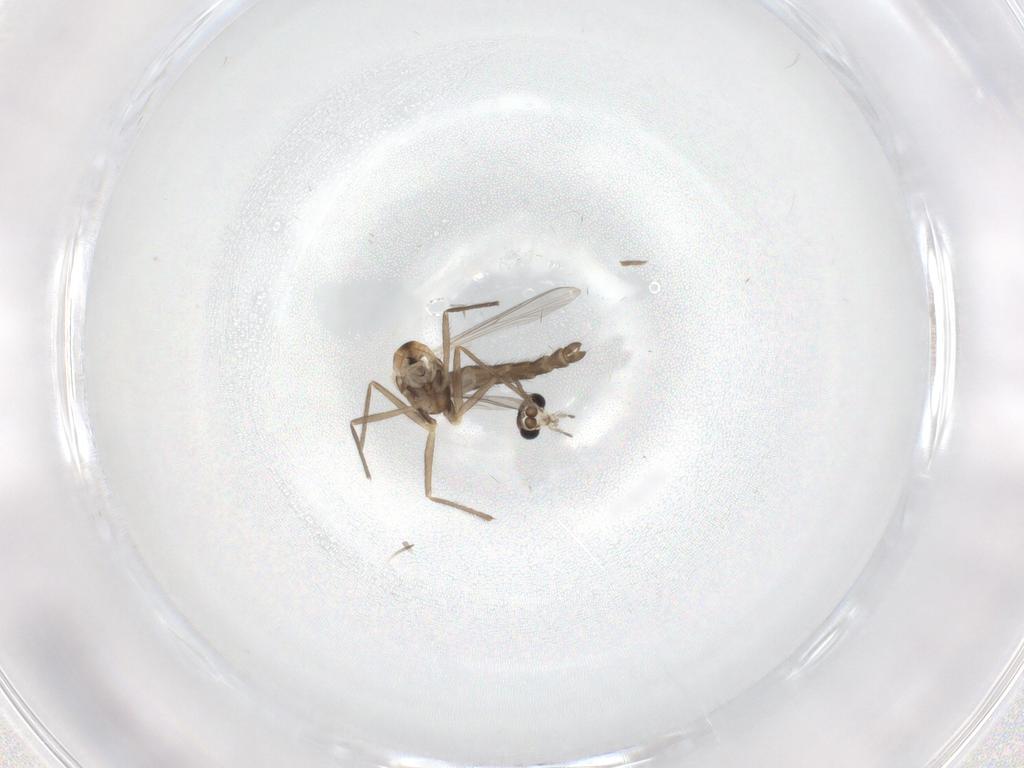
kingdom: Animalia
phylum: Arthropoda
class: Insecta
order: Diptera
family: Chironomidae
